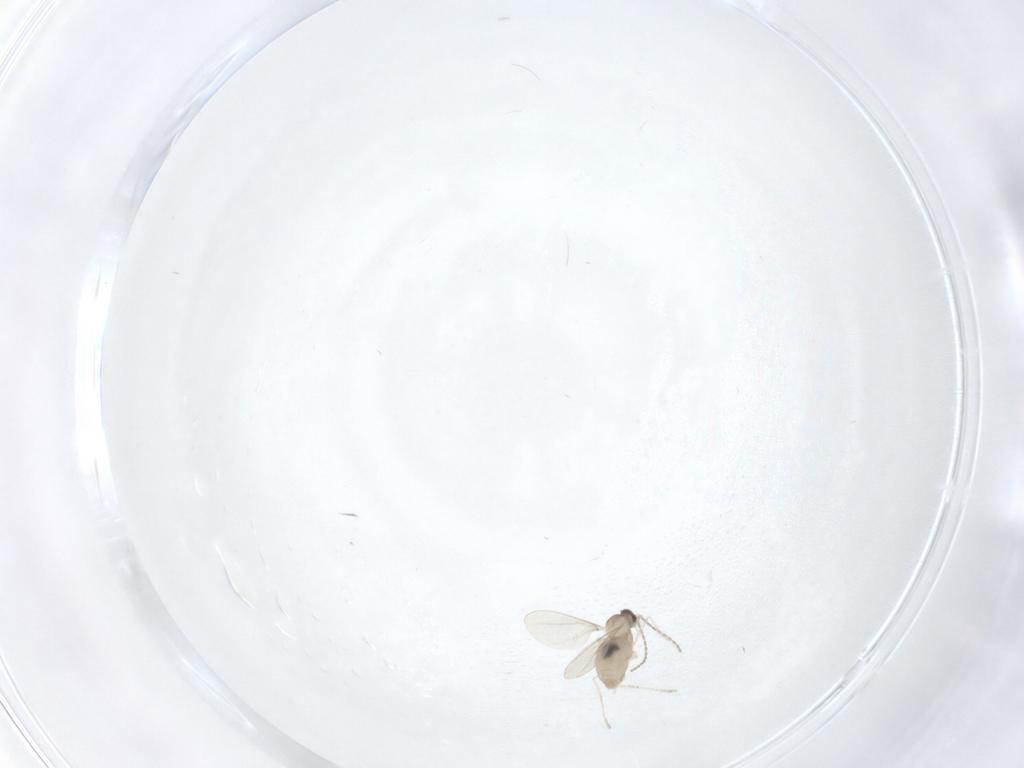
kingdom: Animalia
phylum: Arthropoda
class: Insecta
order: Diptera
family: Cecidomyiidae
